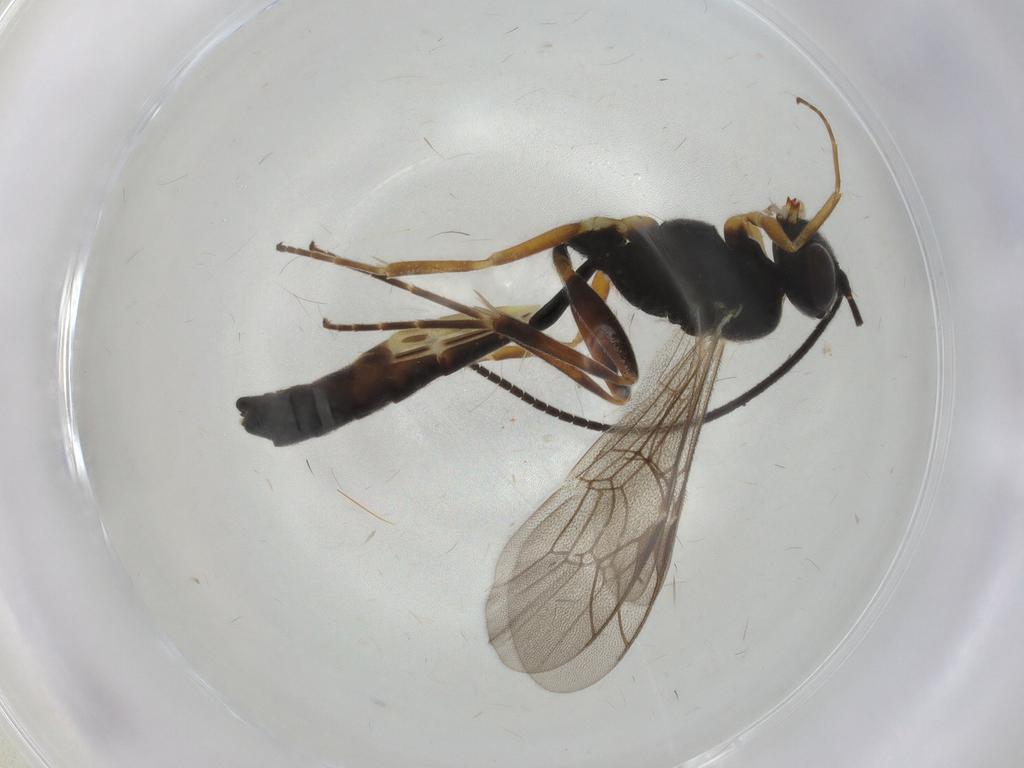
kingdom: Animalia
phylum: Arthropoda
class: Insecta
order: Hymenoptera
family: Ichneumonidae
